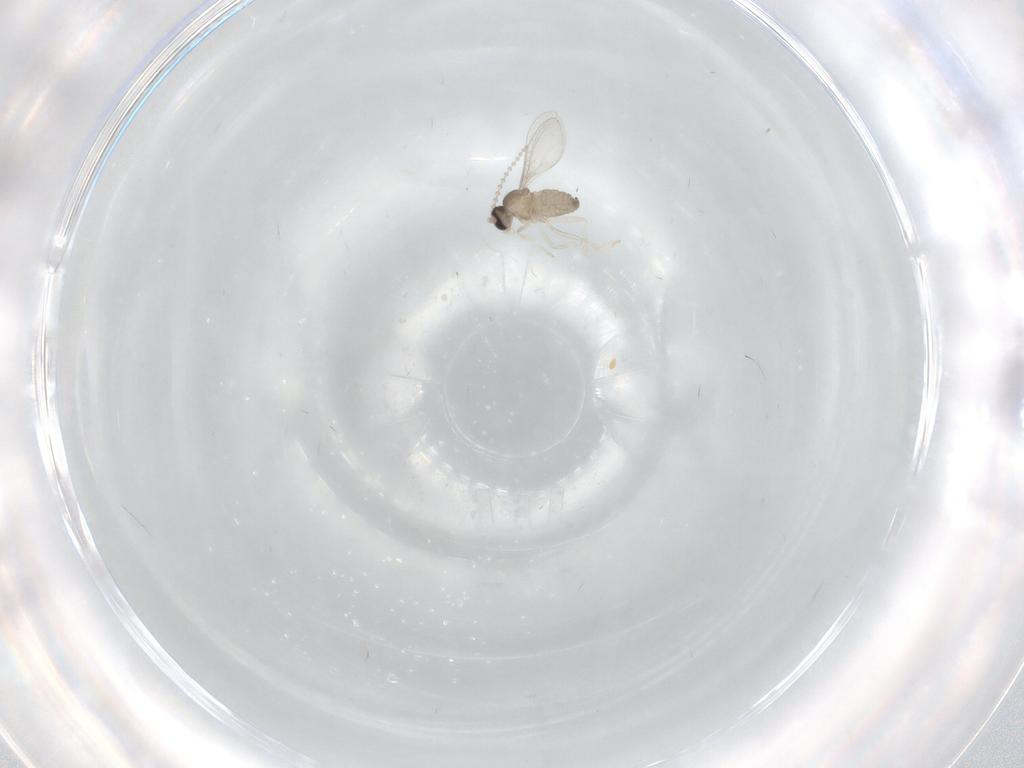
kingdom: Animalia
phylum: Arthropoda
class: Insecta
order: Diptera
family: Cecidomyiidae
